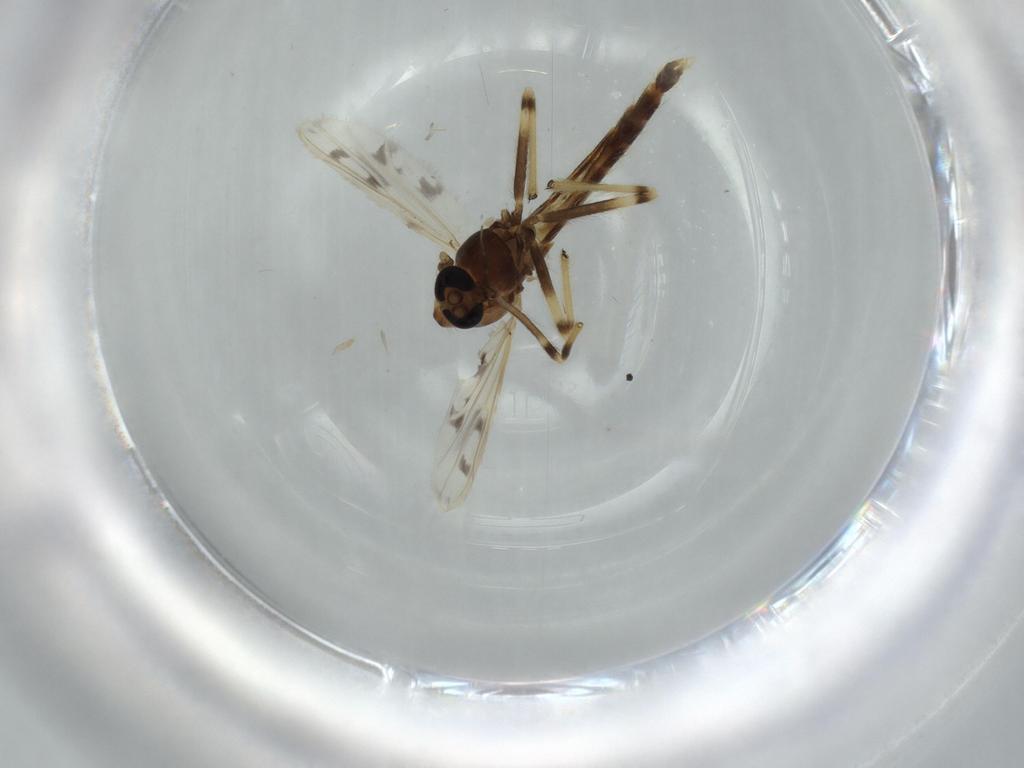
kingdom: Animalia
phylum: Arthropoda
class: Insecta
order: Diptera
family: Chironomidae
